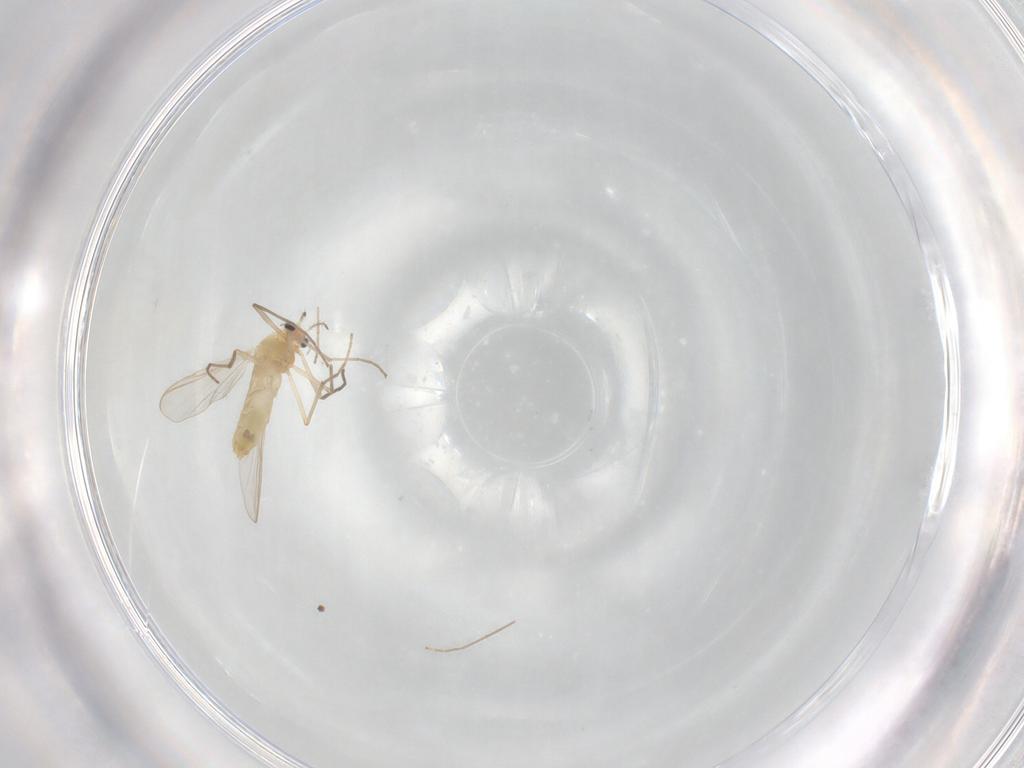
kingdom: Animalia
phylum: Arthropoda
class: Insecta
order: Diptera
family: Chironomidae
